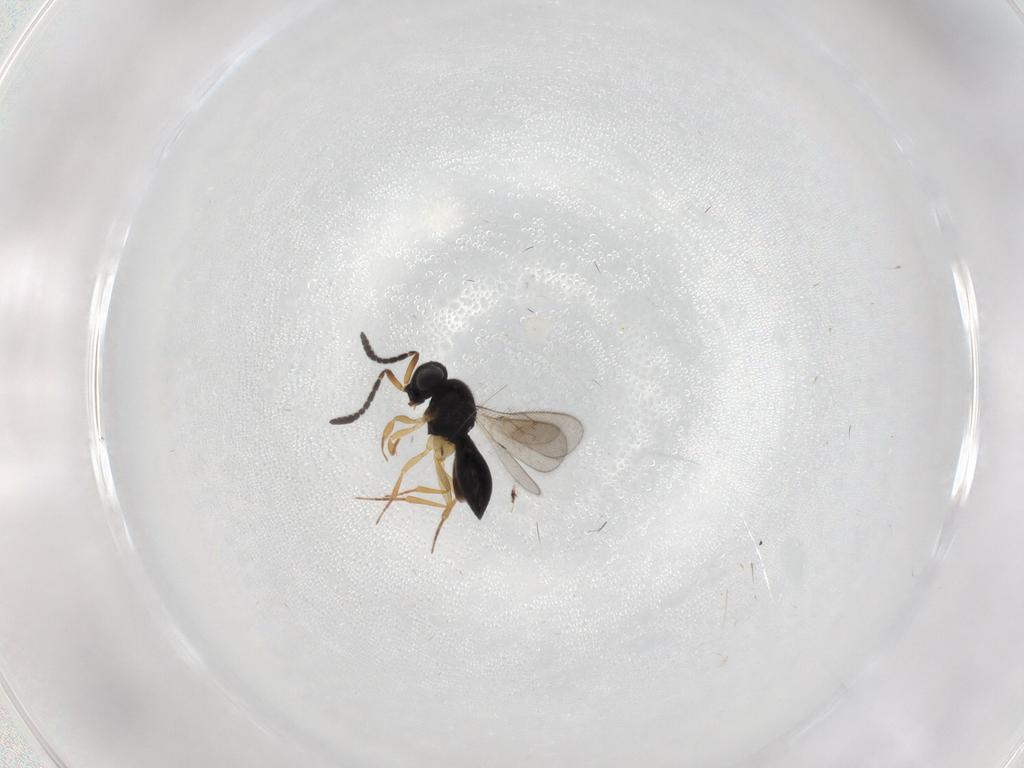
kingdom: Animalia
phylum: Arthropoda
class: Insecta
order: Hymenoptera
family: Scelionidae
